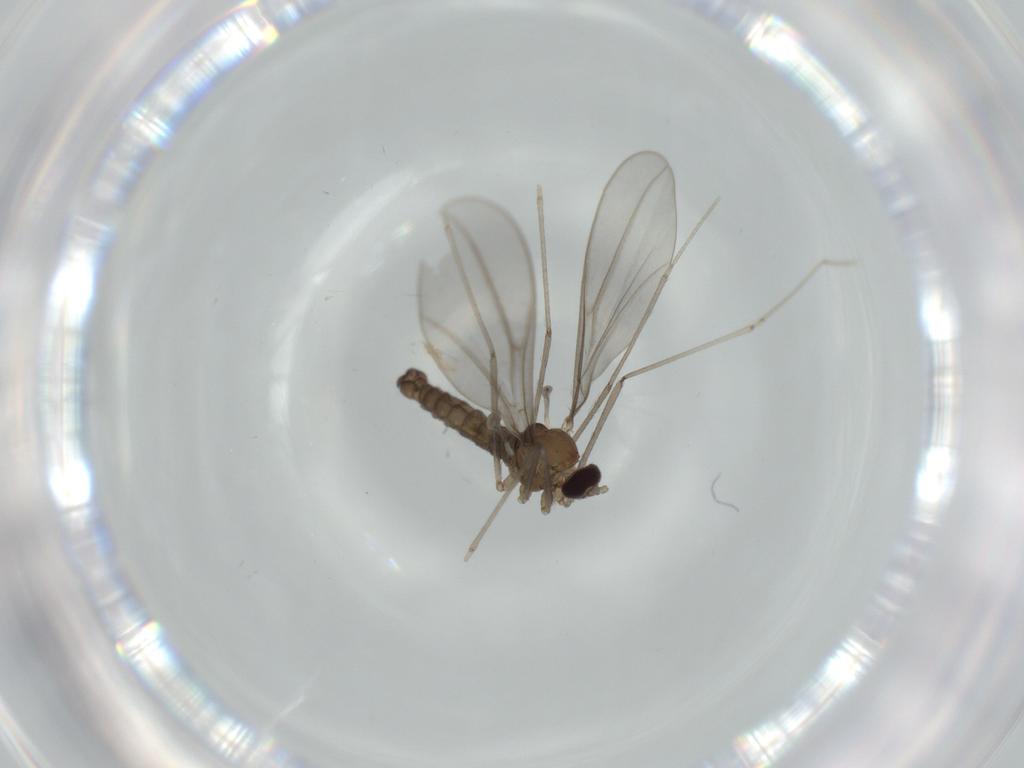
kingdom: Animalia
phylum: Arthropoda
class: Insecta
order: Diptera
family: Cecidomyiidae
